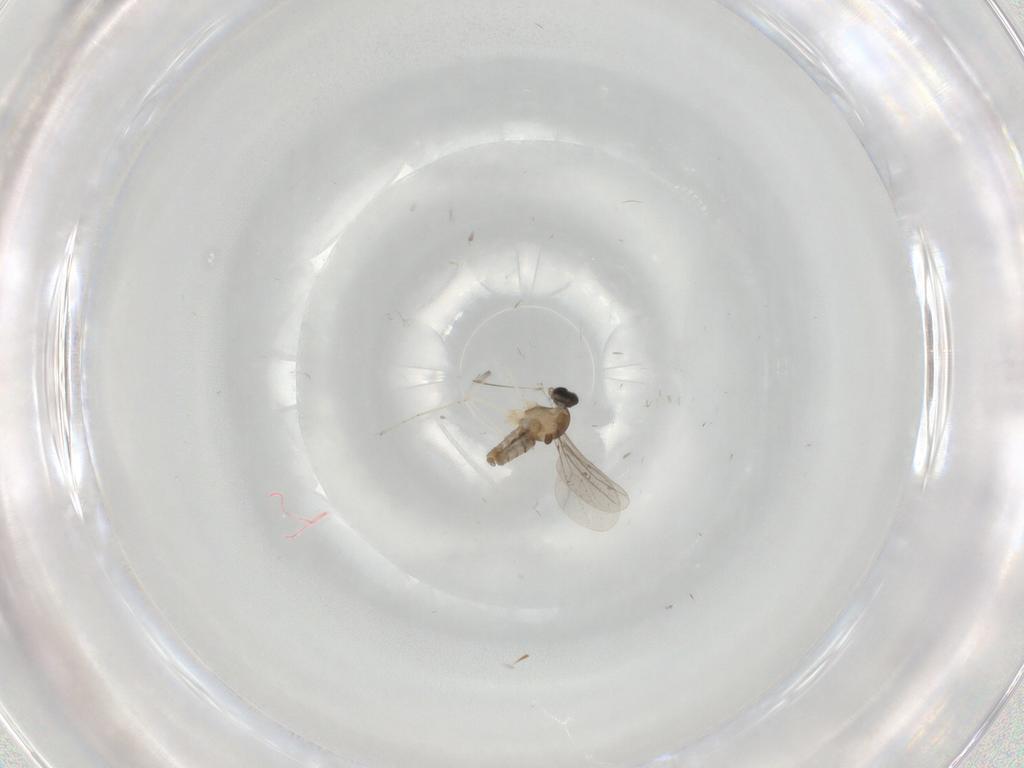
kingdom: Animalia
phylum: Arthropoda
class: Insecta
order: Diptera
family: Cecidomyiidae
